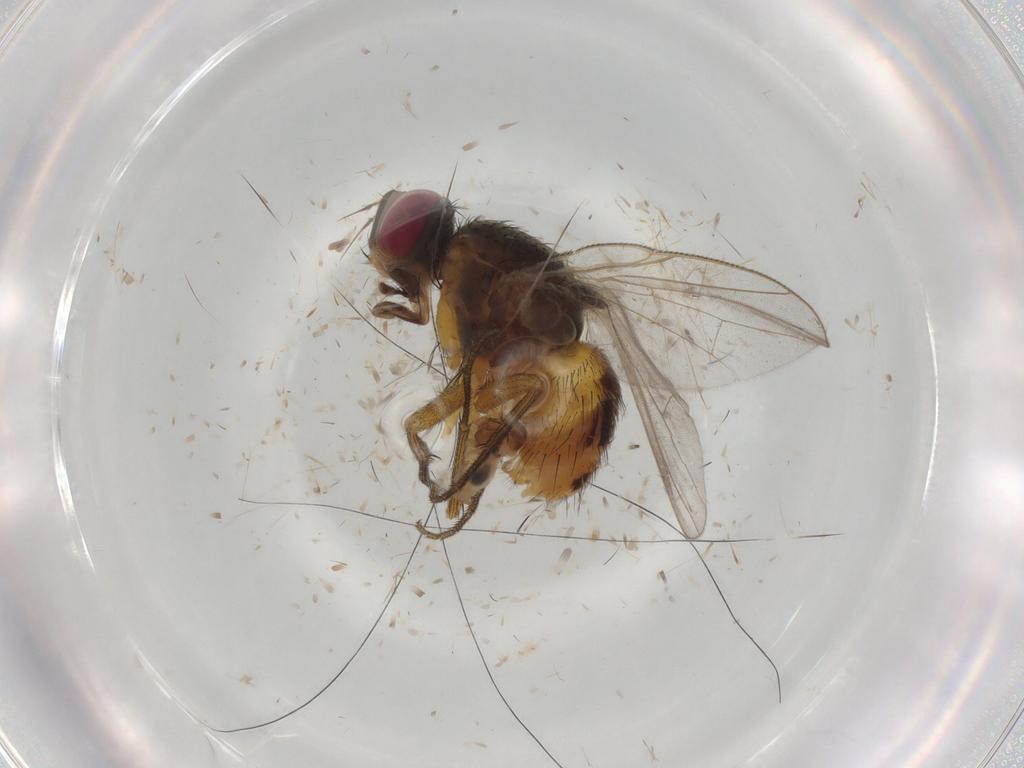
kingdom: Animalia
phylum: Arthropoda
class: Insecta
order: Diptera
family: Muscidae
